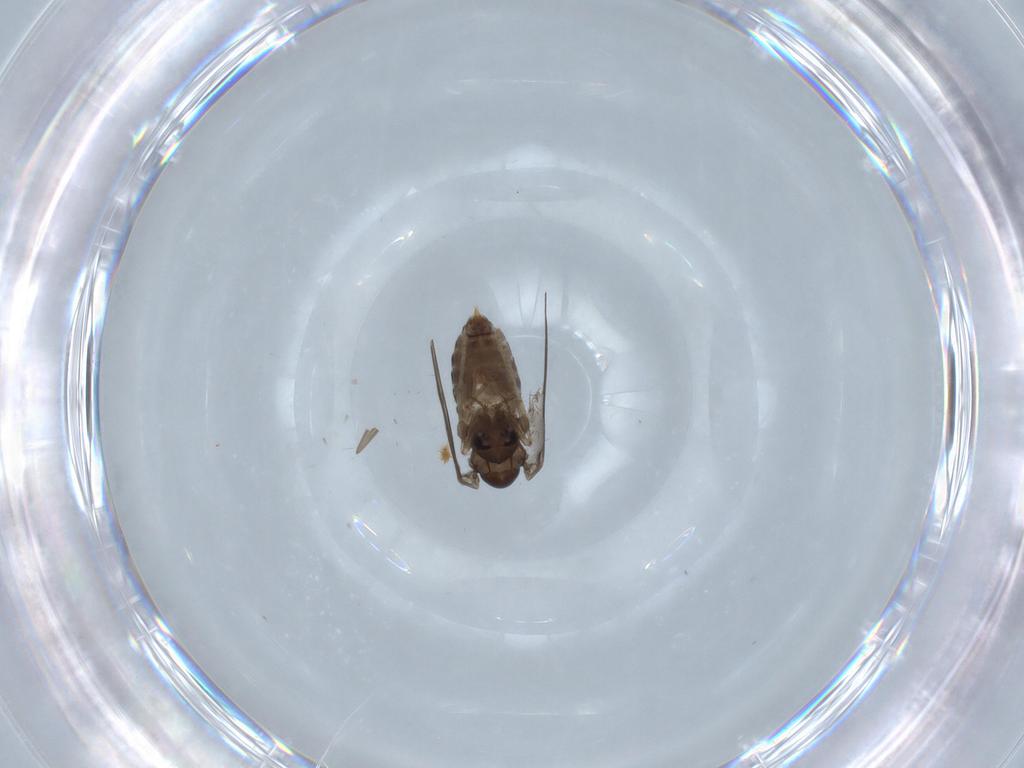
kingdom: Animalia
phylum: Arthropoda
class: Insecta
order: Diptera
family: Psychodidae
